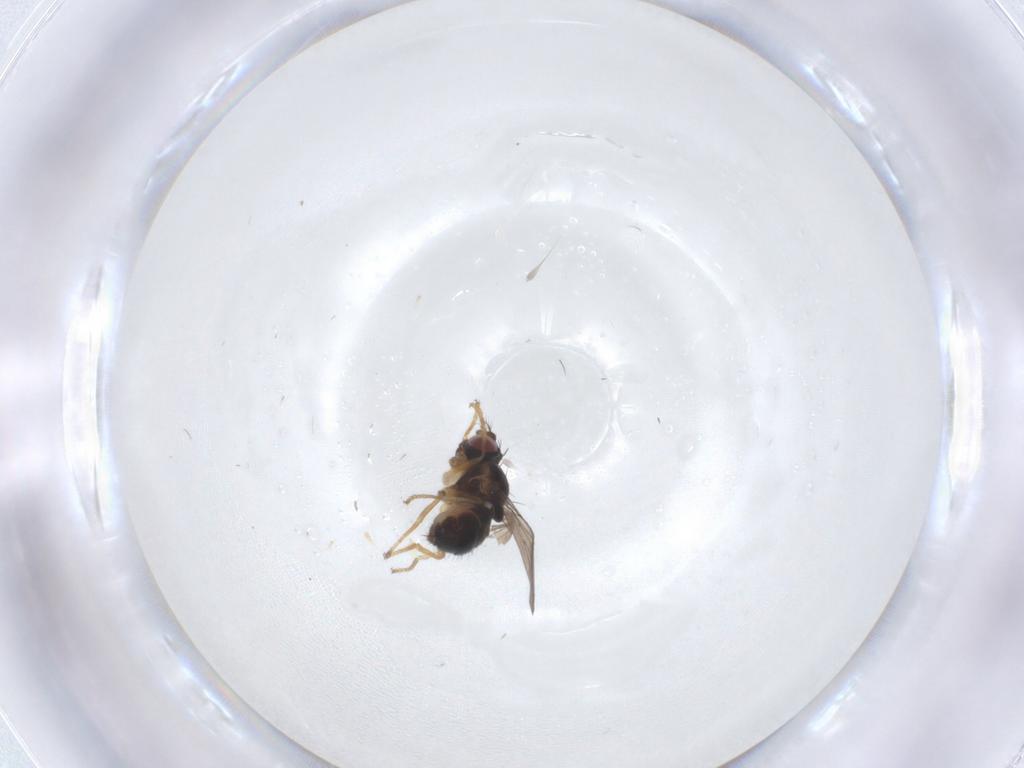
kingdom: Animalia
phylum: Arthropoda
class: Insecta
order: Diptera
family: Ephydridae
